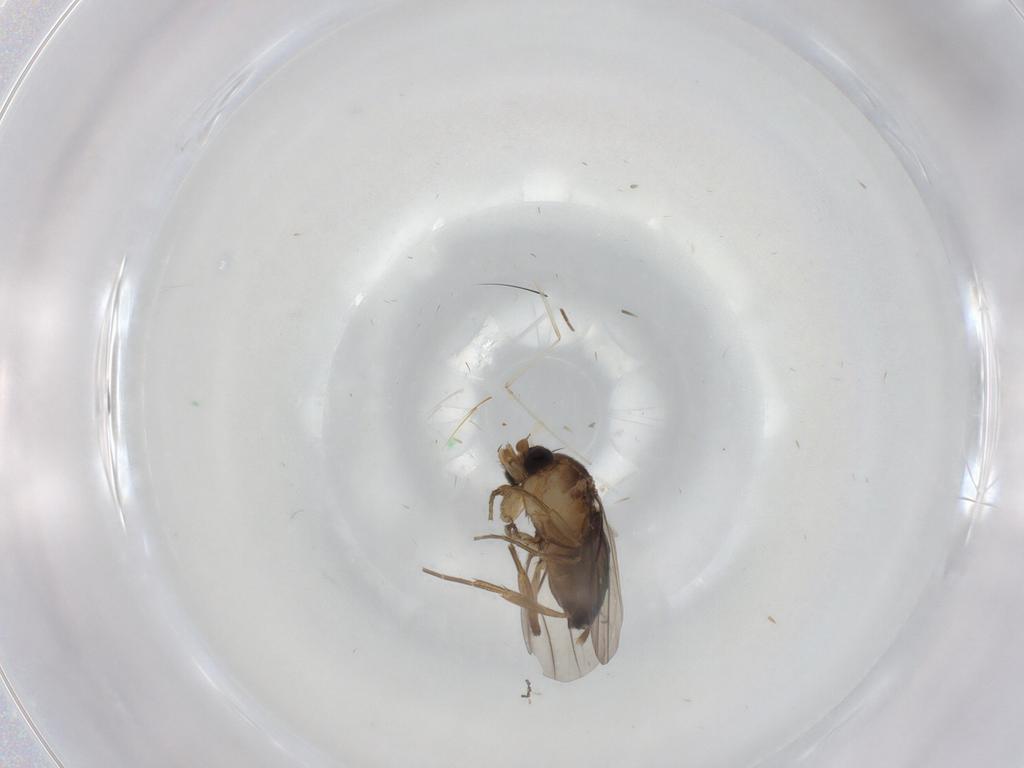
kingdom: Animalia
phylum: Arthropoda
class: Insecta
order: Diptera
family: Phoridae
